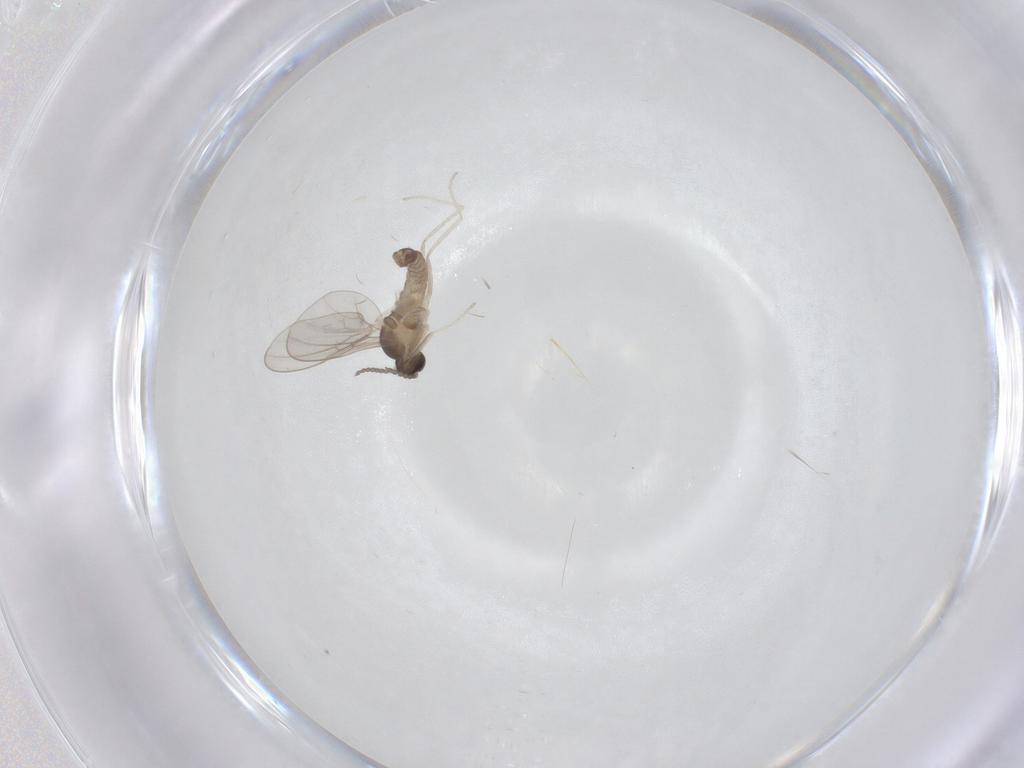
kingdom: Animalia
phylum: Arthropoda
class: Insecta
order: Diptera
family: Cecidomyiidae
